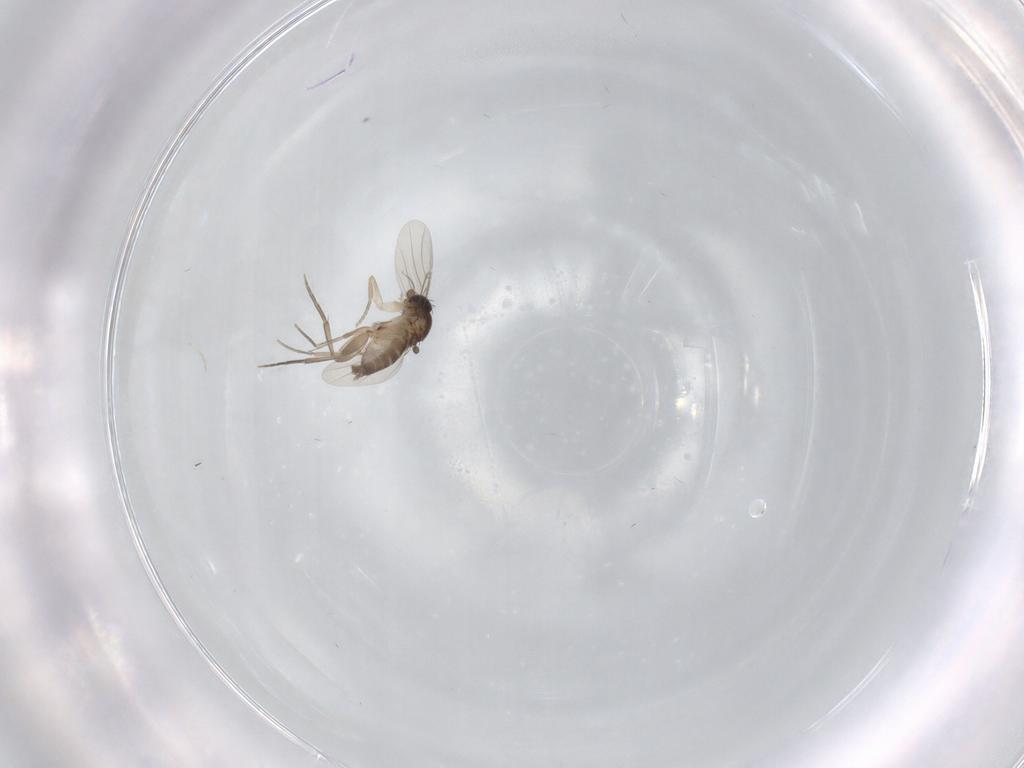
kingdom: Animalia
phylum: Arthropoda
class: Insecta
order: Diptera
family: Phoridae
